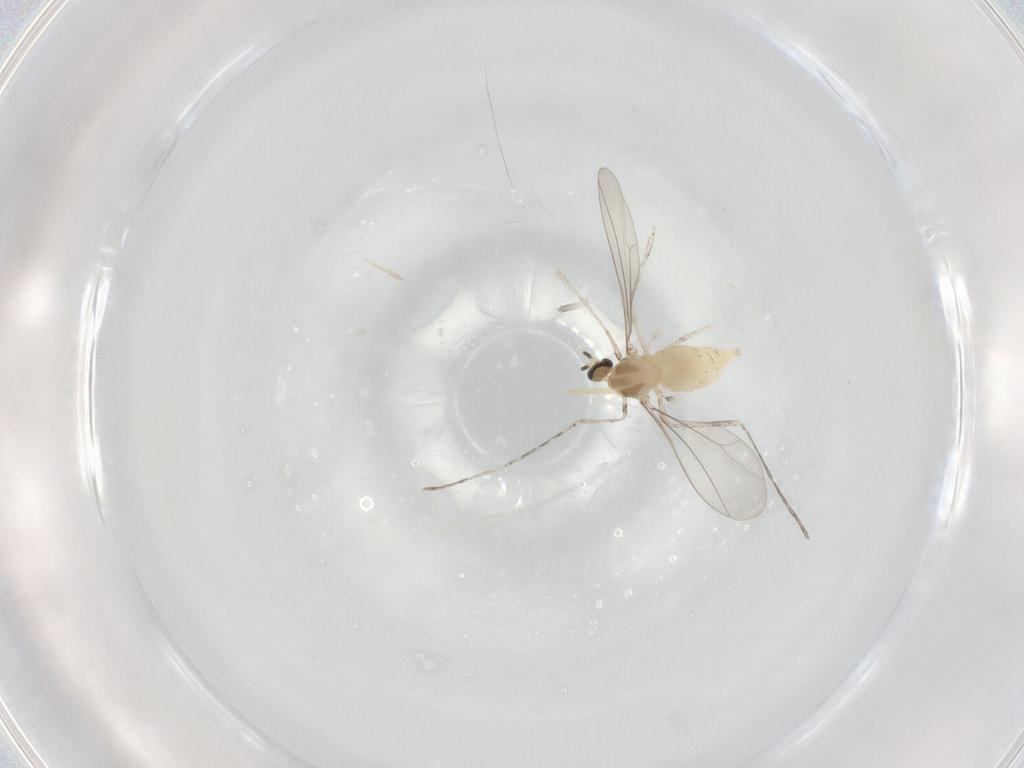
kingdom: Animalia
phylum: Arthropoda
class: Insecta
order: Diptera
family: Cecidomyiidae
